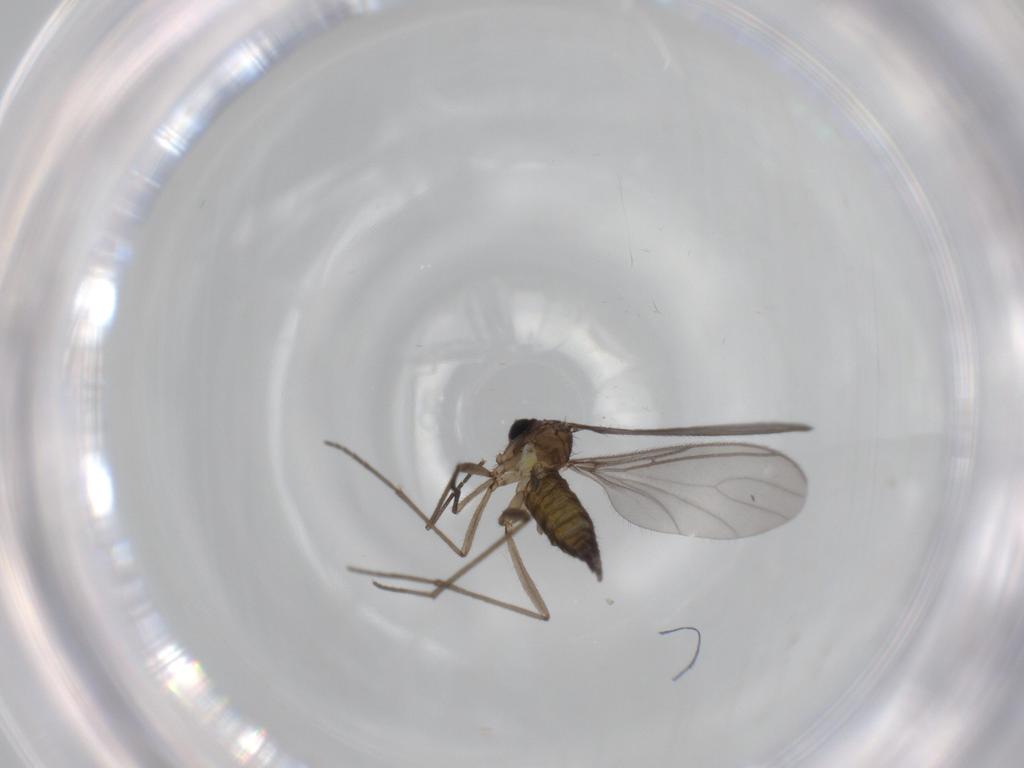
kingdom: Animalia
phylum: Arthropoda
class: Insecta
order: Diptera
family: Sciaridae
